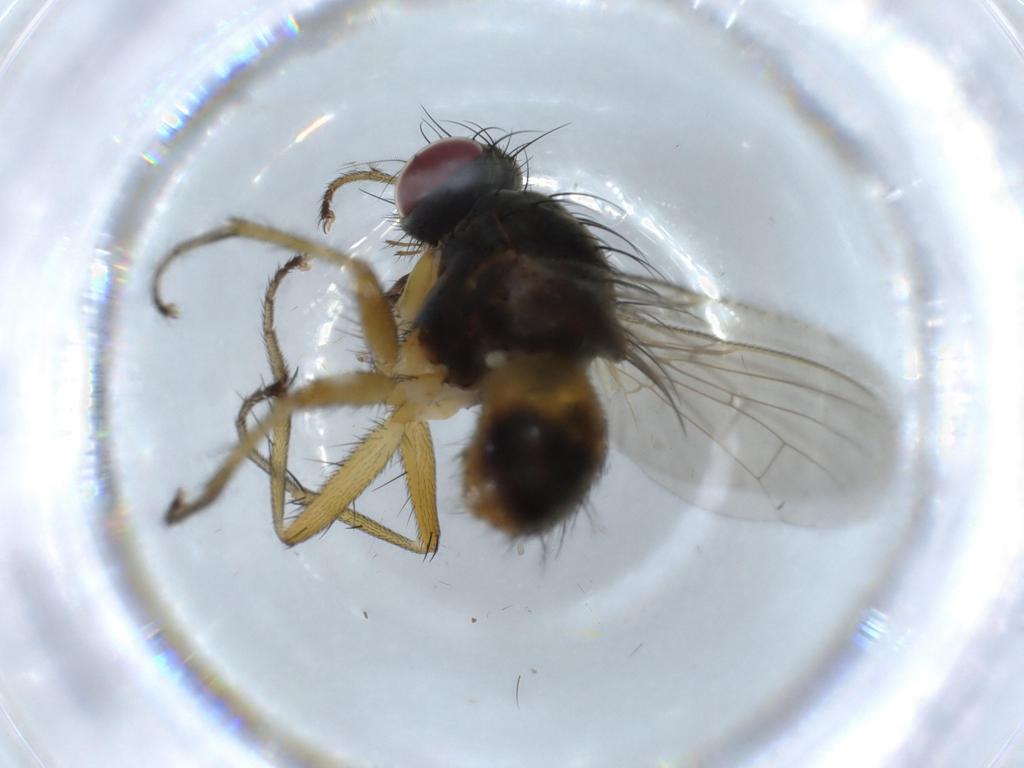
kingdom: Animalia
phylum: Arthropoda
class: Insecta
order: Diptera
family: Muscidae
